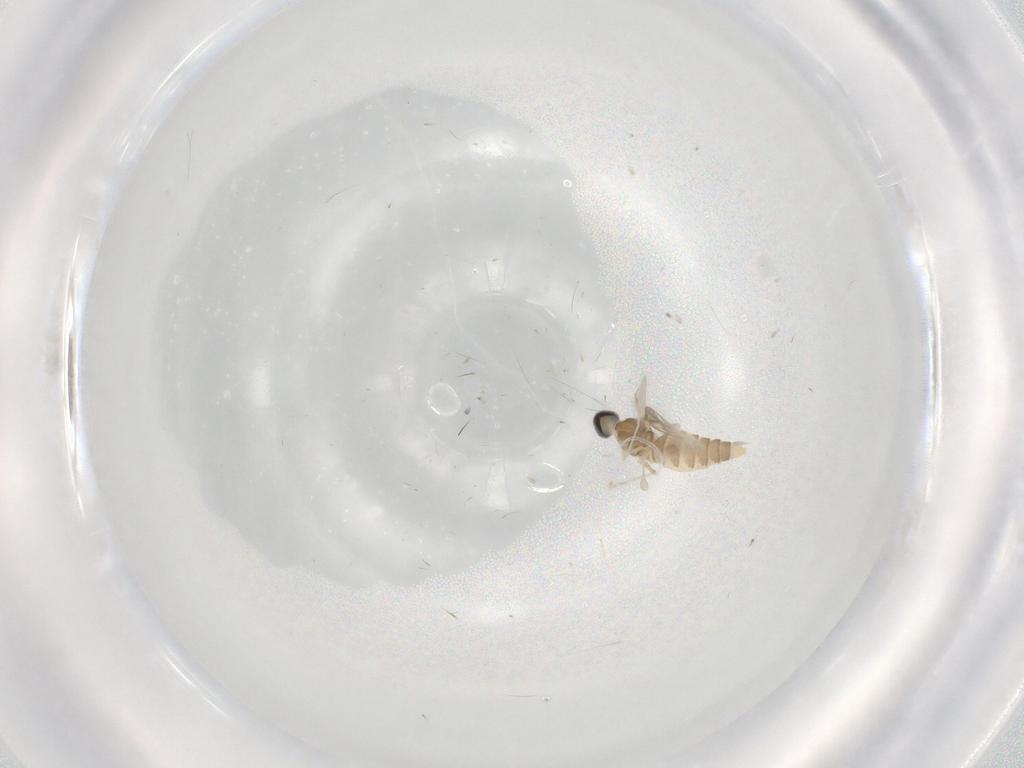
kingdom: Animalia
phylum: Arthropoda
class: Insecta
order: Diptera
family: Cecidomyiidae
